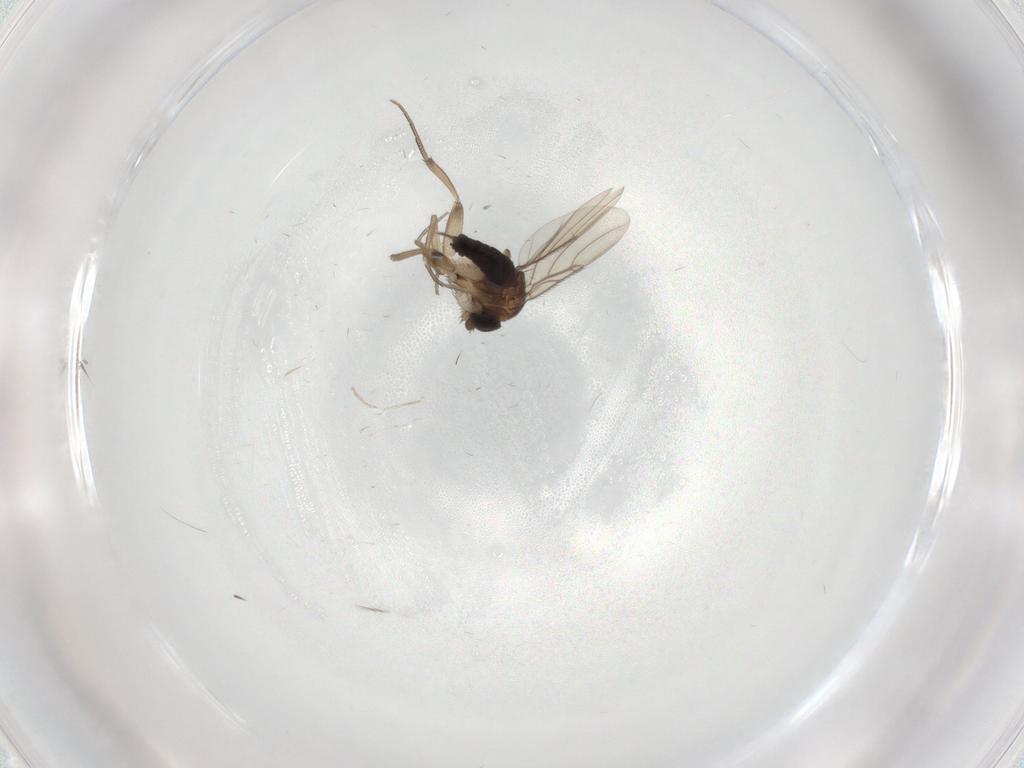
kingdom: Animalia
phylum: Arthropoda
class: Insecta
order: Diptera
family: Phoridae
